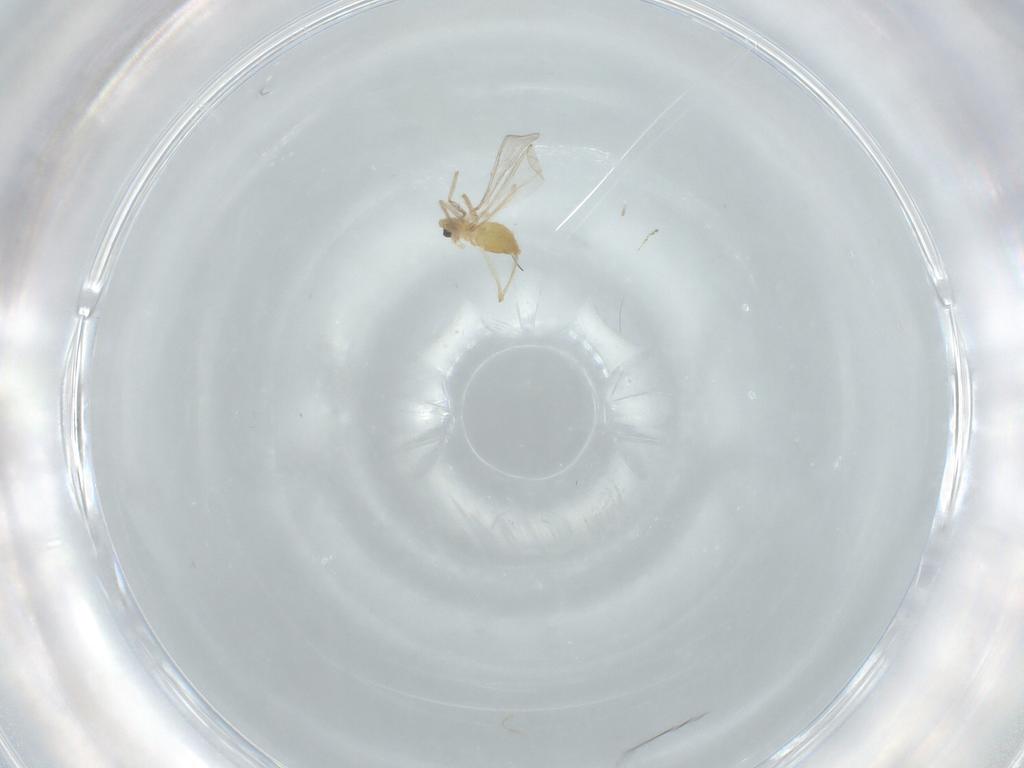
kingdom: Animalia
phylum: Arthropoda
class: Insecta
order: Diptera
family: Chironomidae
